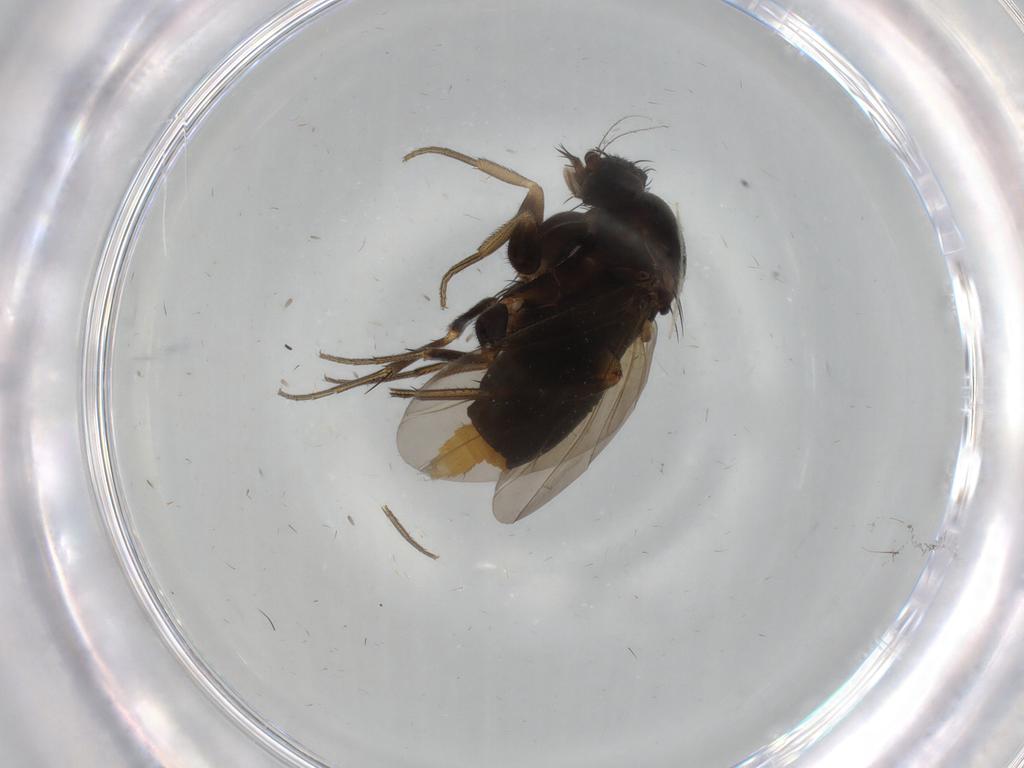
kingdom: Animalia
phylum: Arthropoda
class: Insecta
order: Diptera
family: Phoridae
